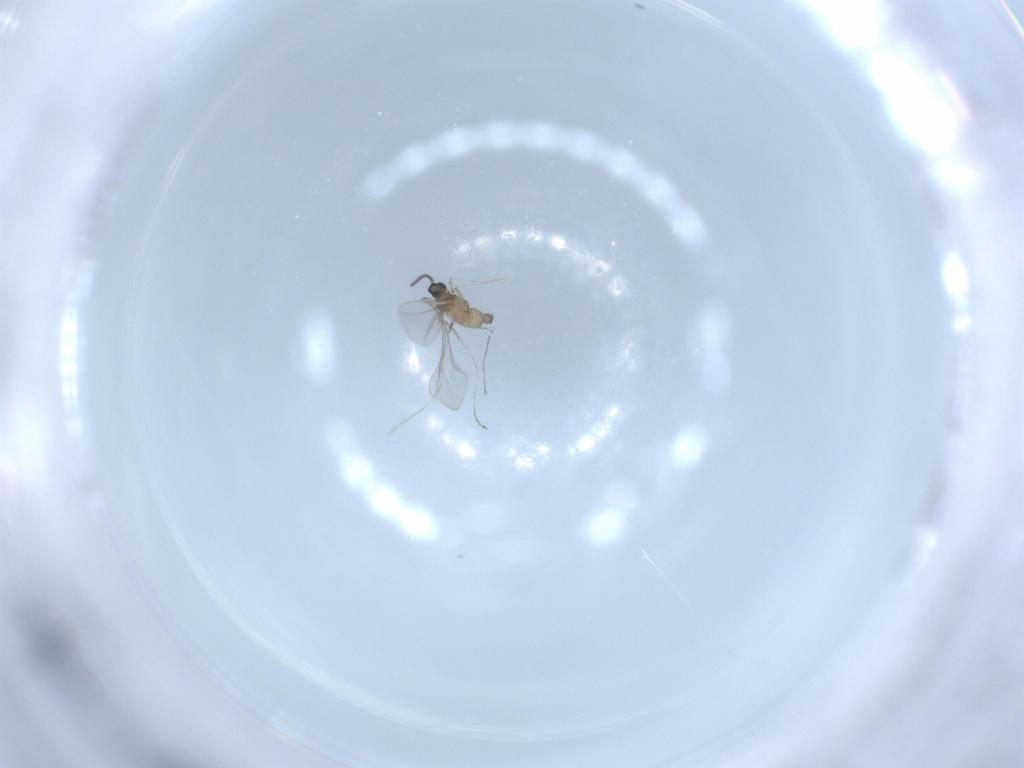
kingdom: Animalia
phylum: Arthropoda
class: Insecta
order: Diptera
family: Cecidomyiidae
